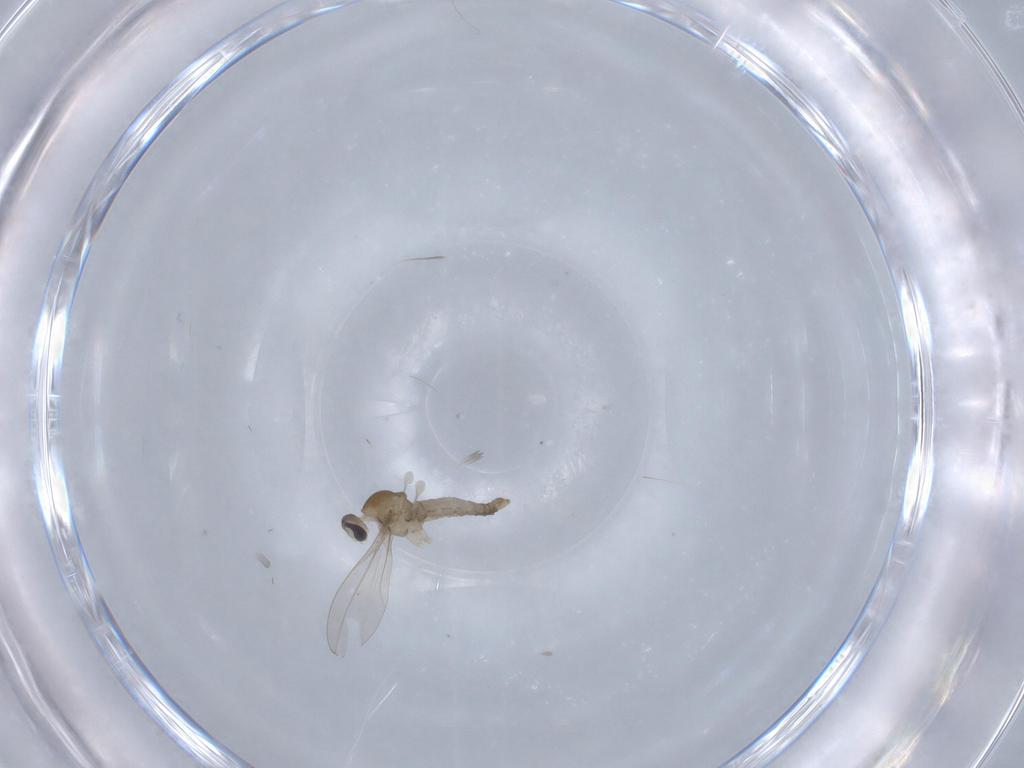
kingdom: Animalia
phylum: Arthropoda
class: Insecta
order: Diptera
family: Cecidomyiidae
